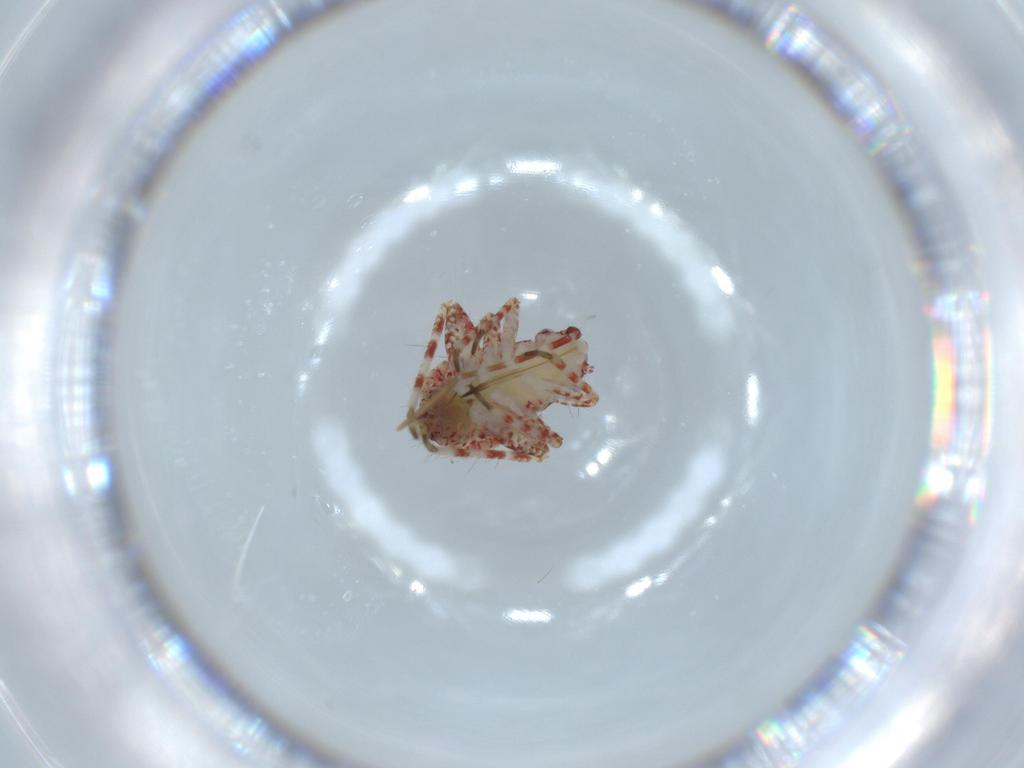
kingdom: Animalia
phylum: Arthropoda
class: Insecta
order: Hemiptera
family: Miridae
